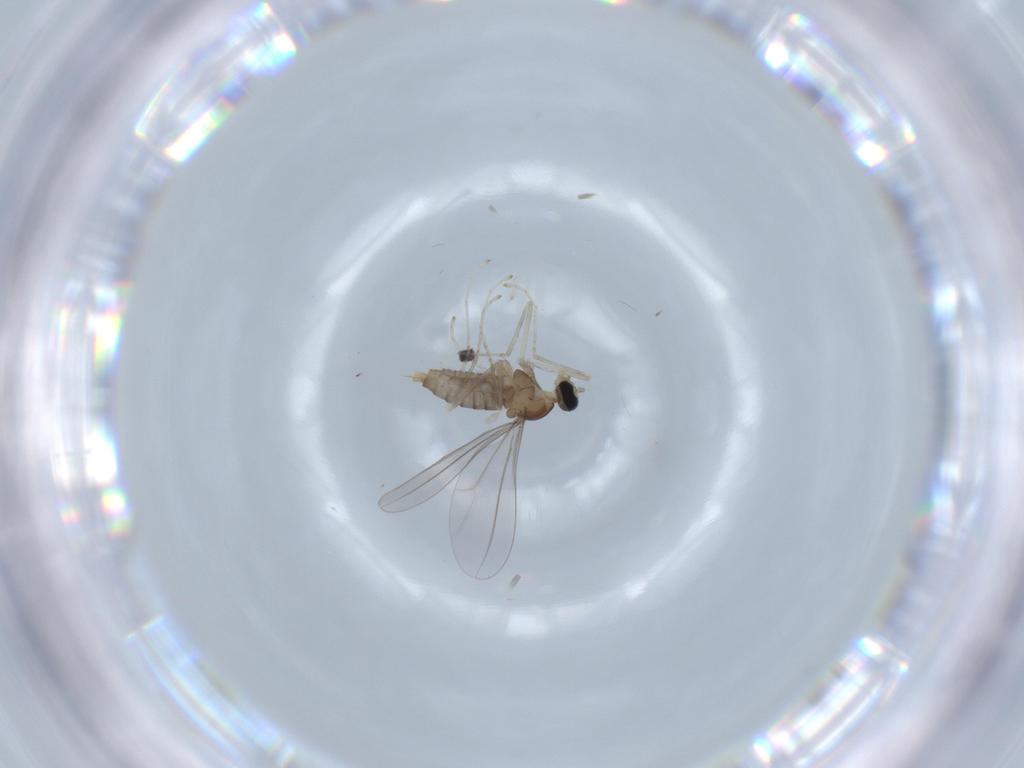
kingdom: Animalia
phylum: Arthropoda
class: Insecta
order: Diptera
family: Cecidomyiidae
